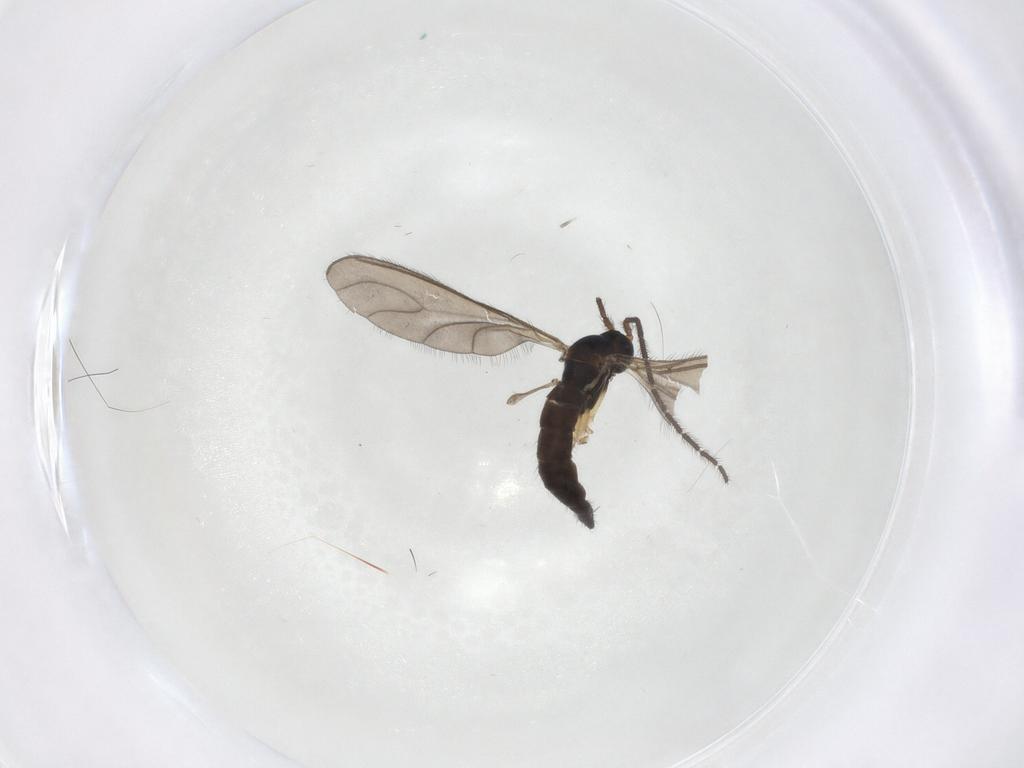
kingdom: Animalia
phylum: Arthropoda
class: Insecta
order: Diptera
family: Sciaridae
